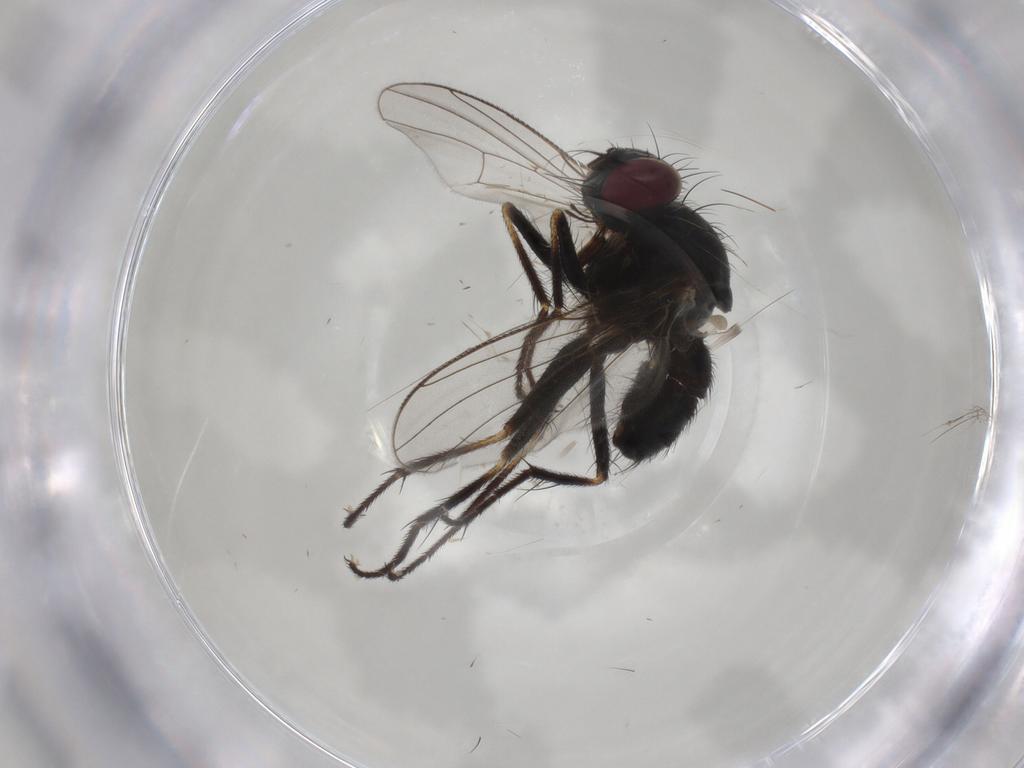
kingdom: Animalia
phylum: Arthropoda
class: Insecta
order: Diptera
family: Muscidae
